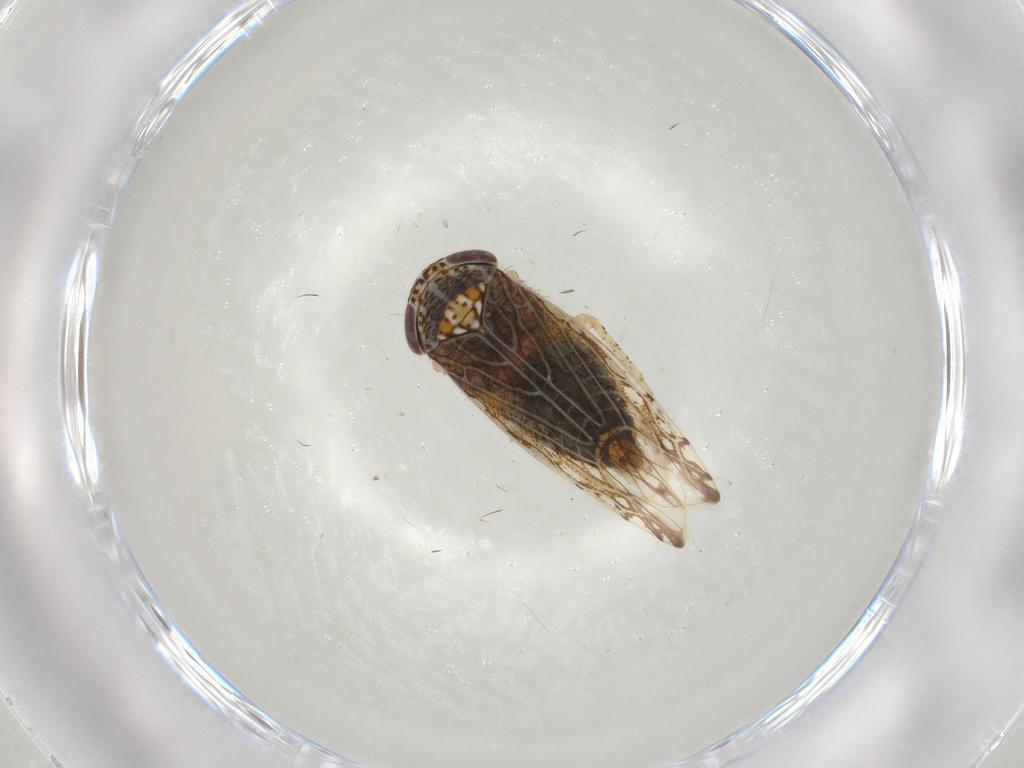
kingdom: Animalia
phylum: Arthropoda
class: Insecta
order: Hemiptera
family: Cicadellidae
